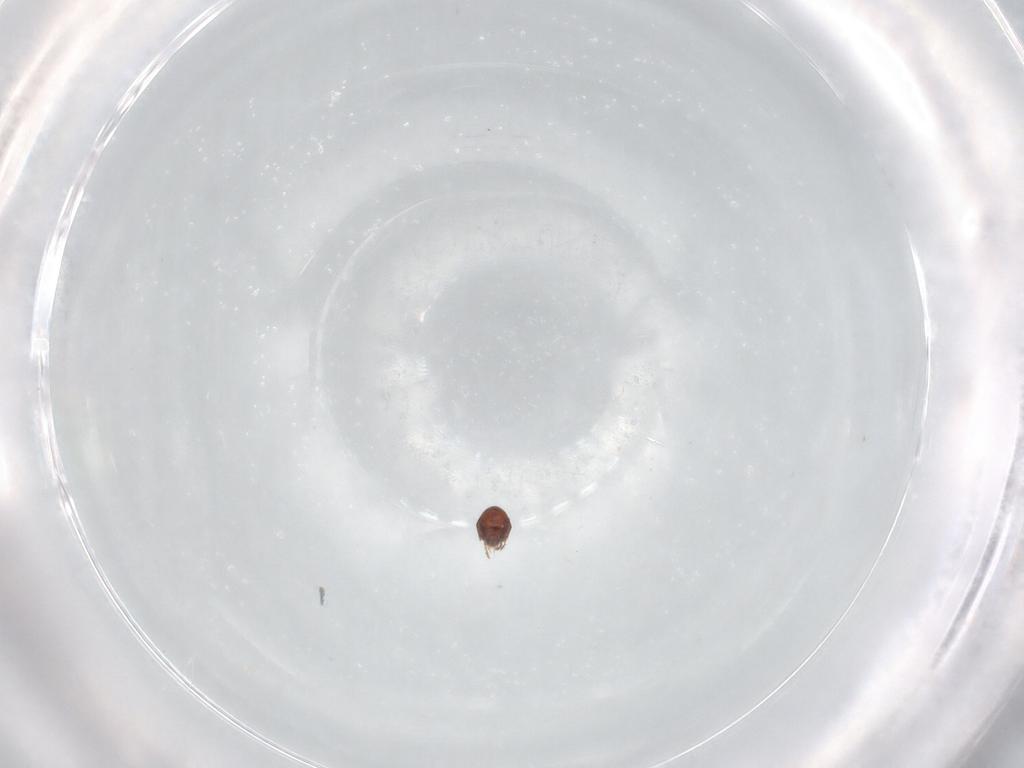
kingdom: Animalia
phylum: Arthropoda
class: Arachnida
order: Sarcoptiformes
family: Ceratozetidae
